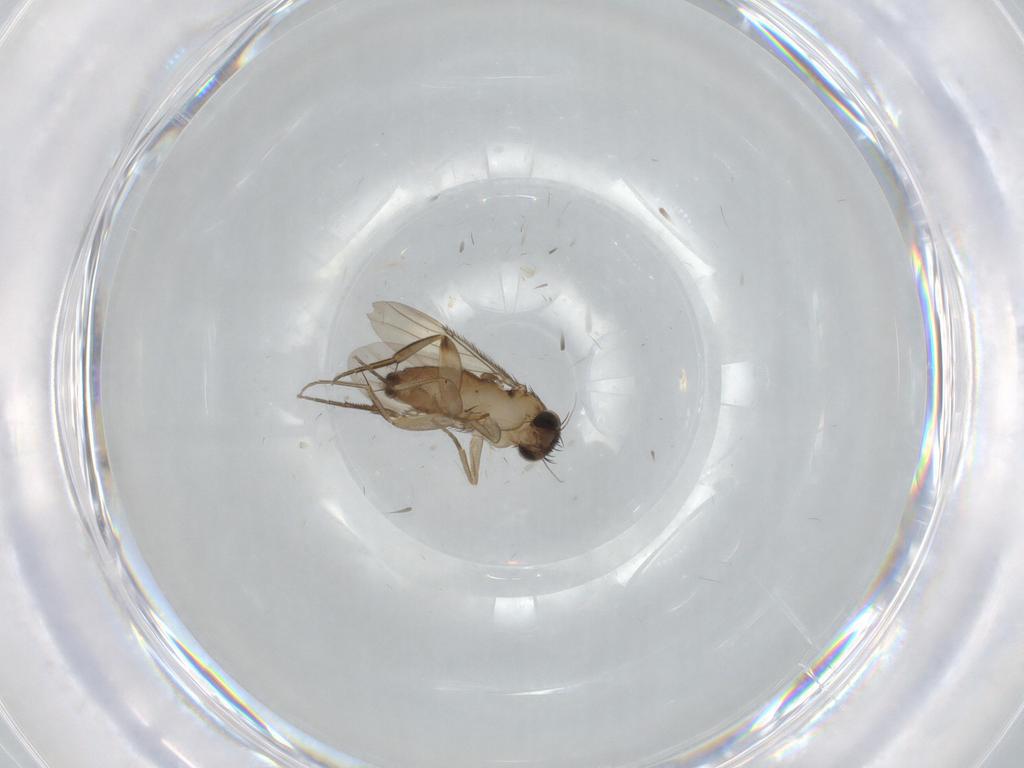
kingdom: Animalia
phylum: Arthropoda
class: Insecta
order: Diptera
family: Phoridae
